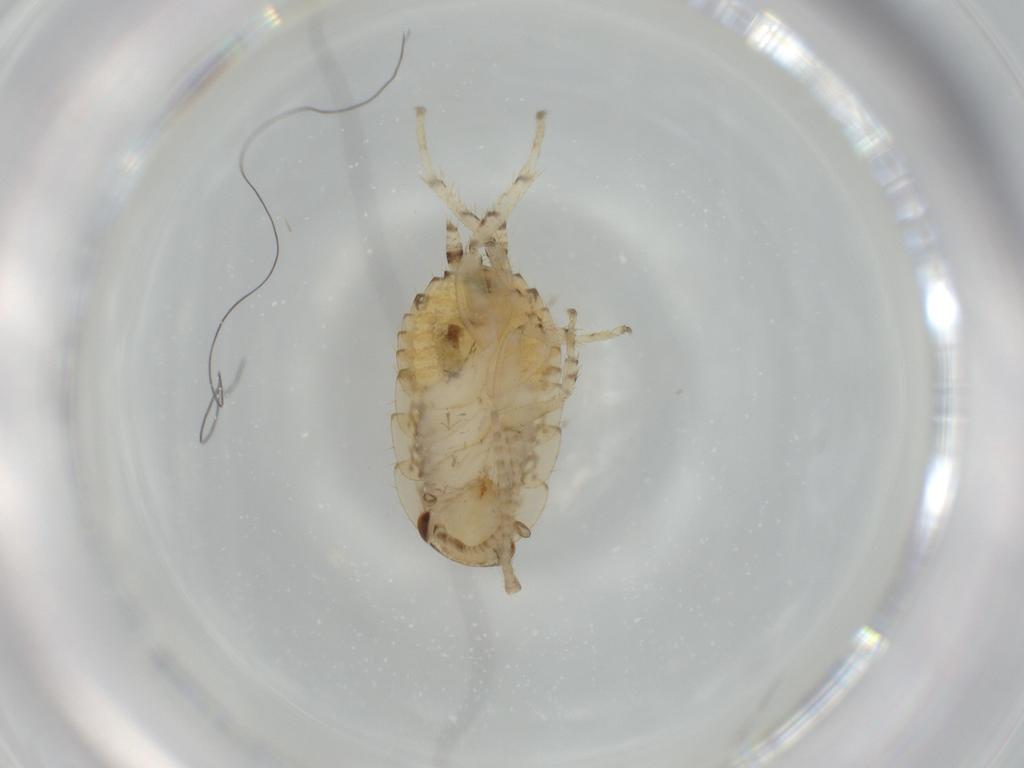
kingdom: Animalia
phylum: Arthropoda
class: Insecta
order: Blattodea
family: Ectobiidae
